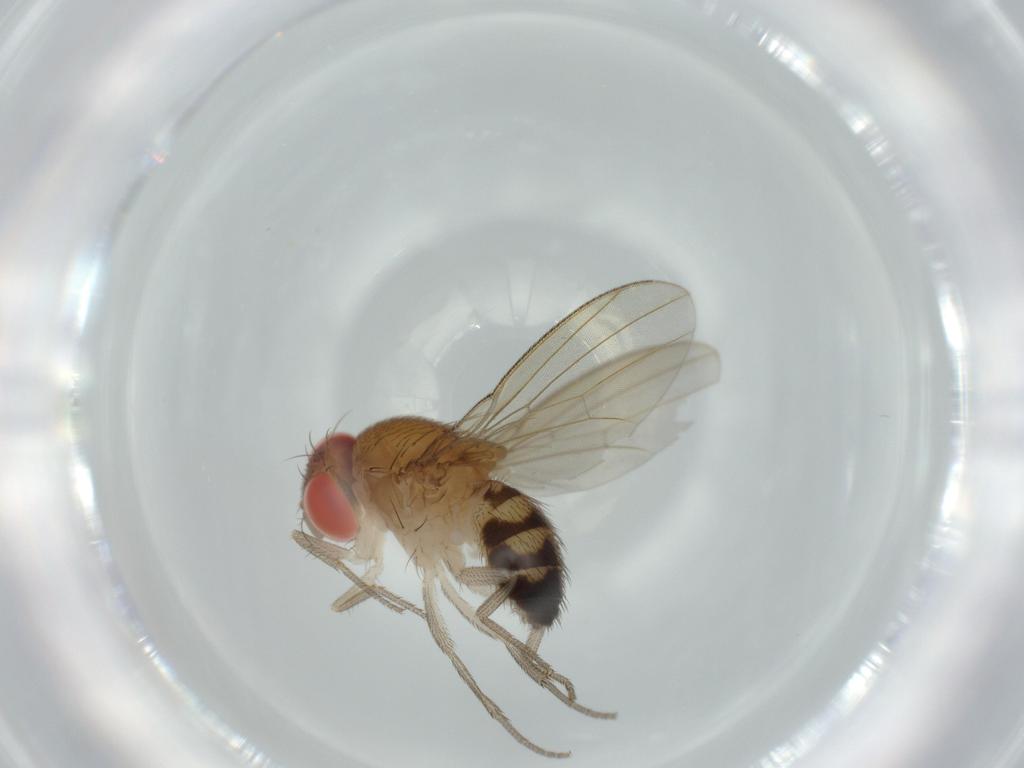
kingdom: Animalia
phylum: Arthropoda
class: Insecta
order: Diptera
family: Drosophilidae
